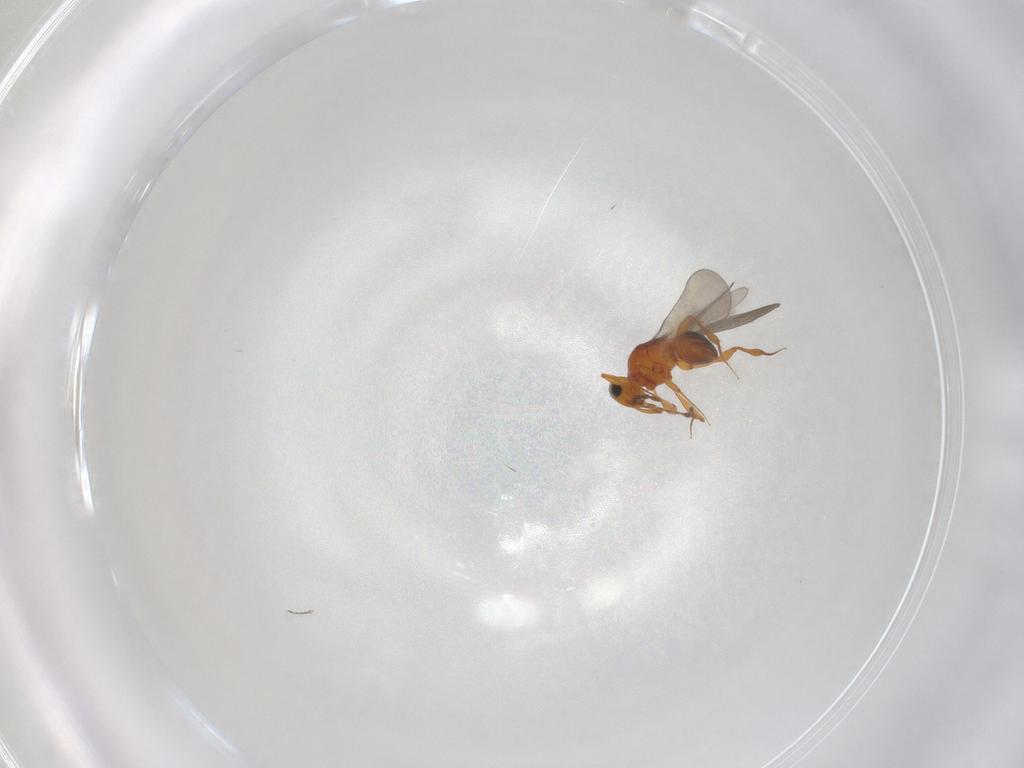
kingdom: Animalia
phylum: Arthropoda
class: Insecta
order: Hymenoptera
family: Platygastridae
